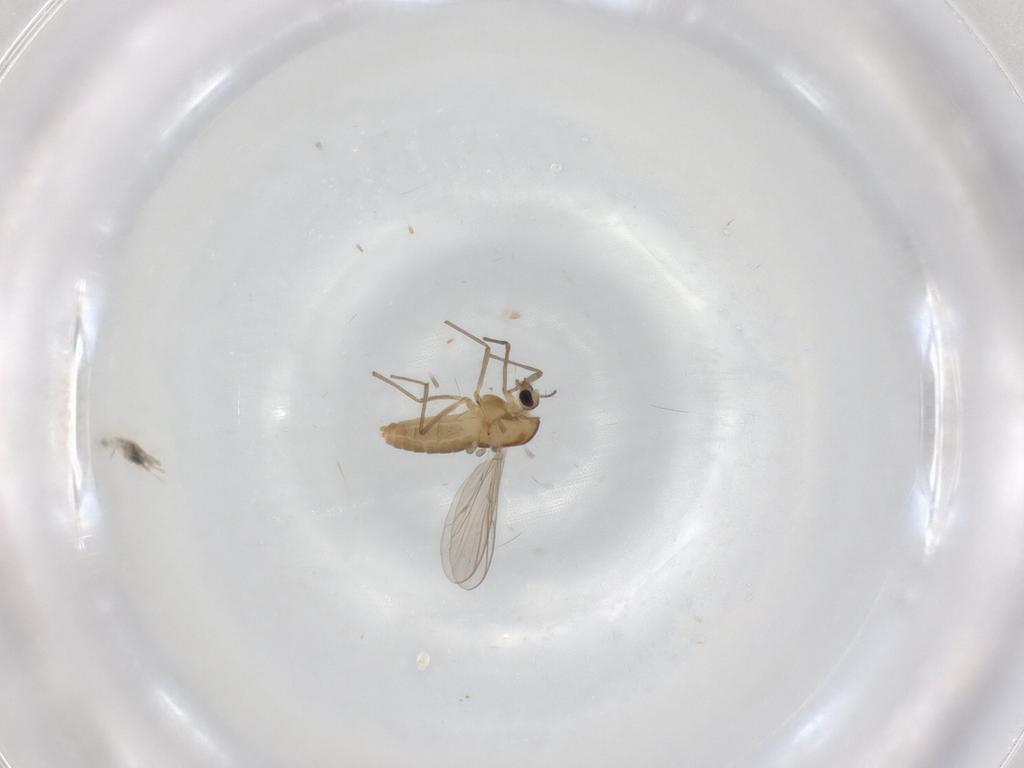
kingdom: Animalia
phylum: Arthropoda
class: Insecta
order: Diptera
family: Chironomidae
